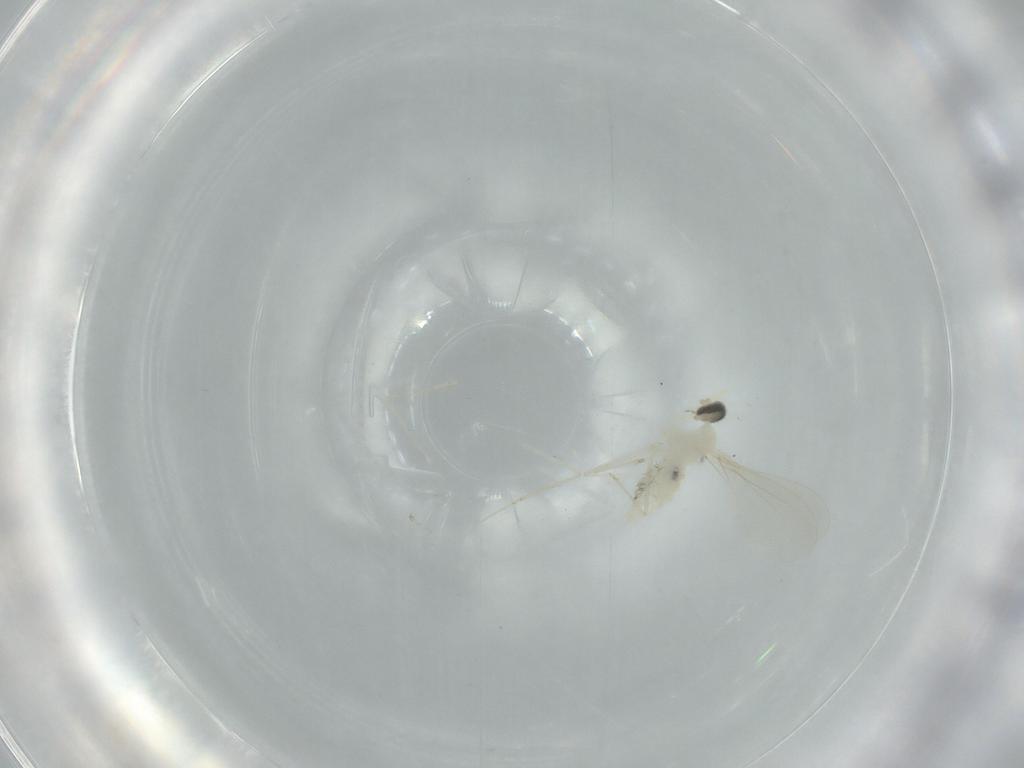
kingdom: Animalia
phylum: Arthropoda
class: Insecta
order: Diptera
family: Cecidomyiidae
